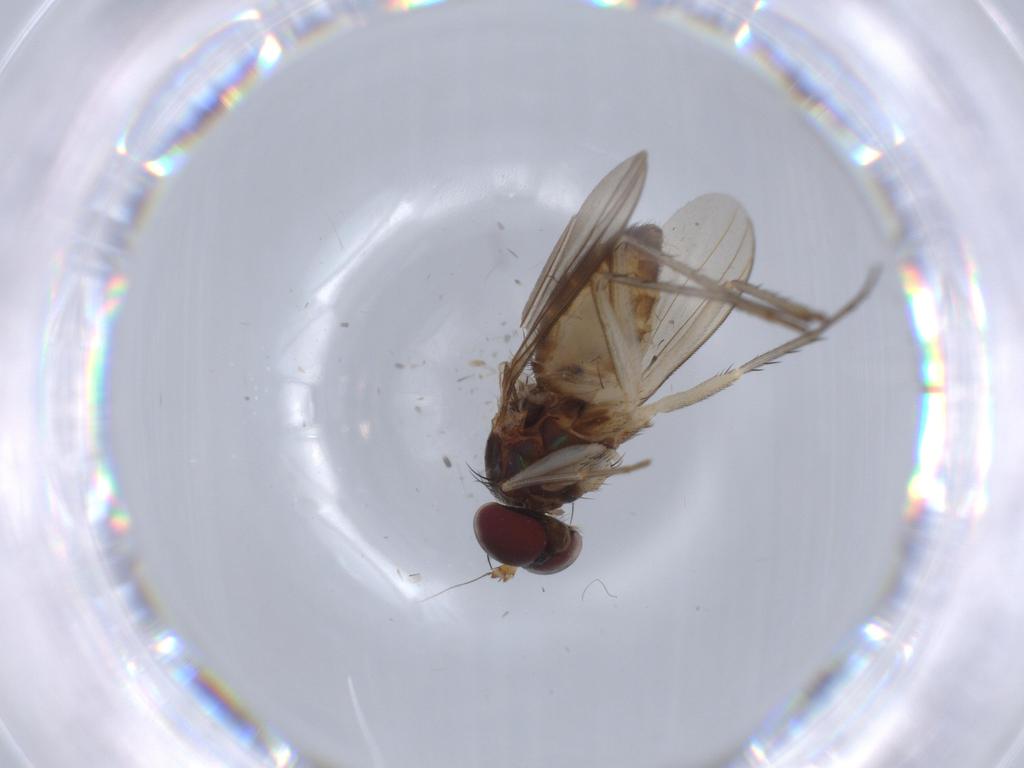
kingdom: Animalia
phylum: Arthropoda
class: Insecta
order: Diptera
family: Dolichopodidae
